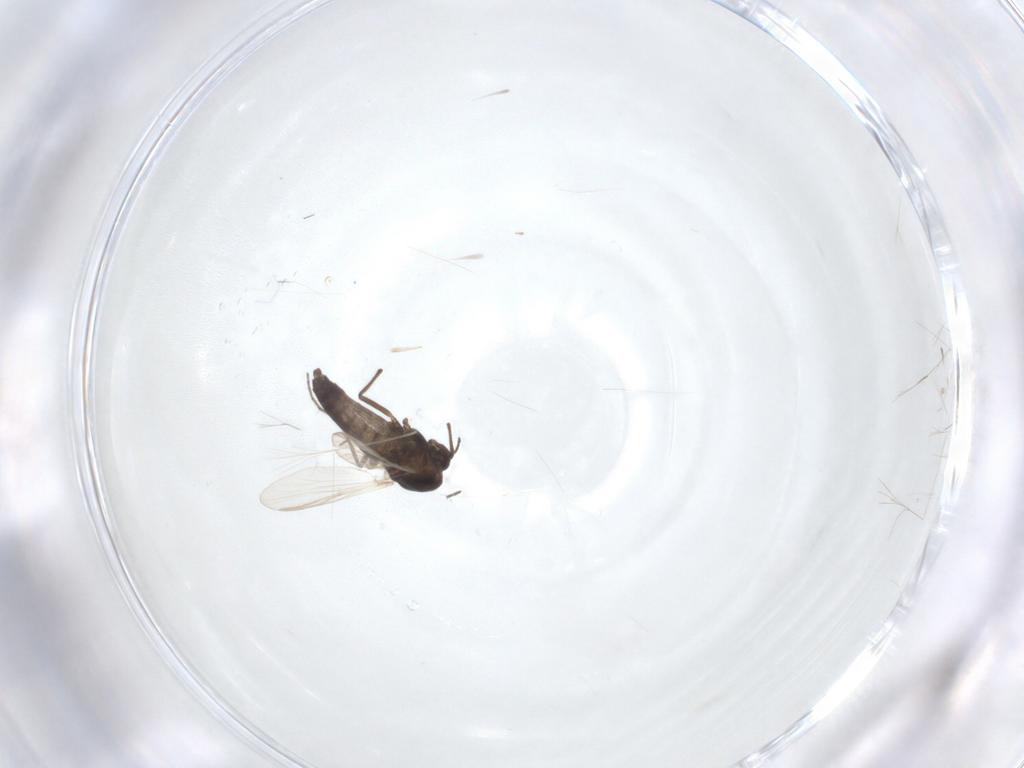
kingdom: Animalia
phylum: Arthropoda
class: Insecta
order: Diptera
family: Chironomidae
